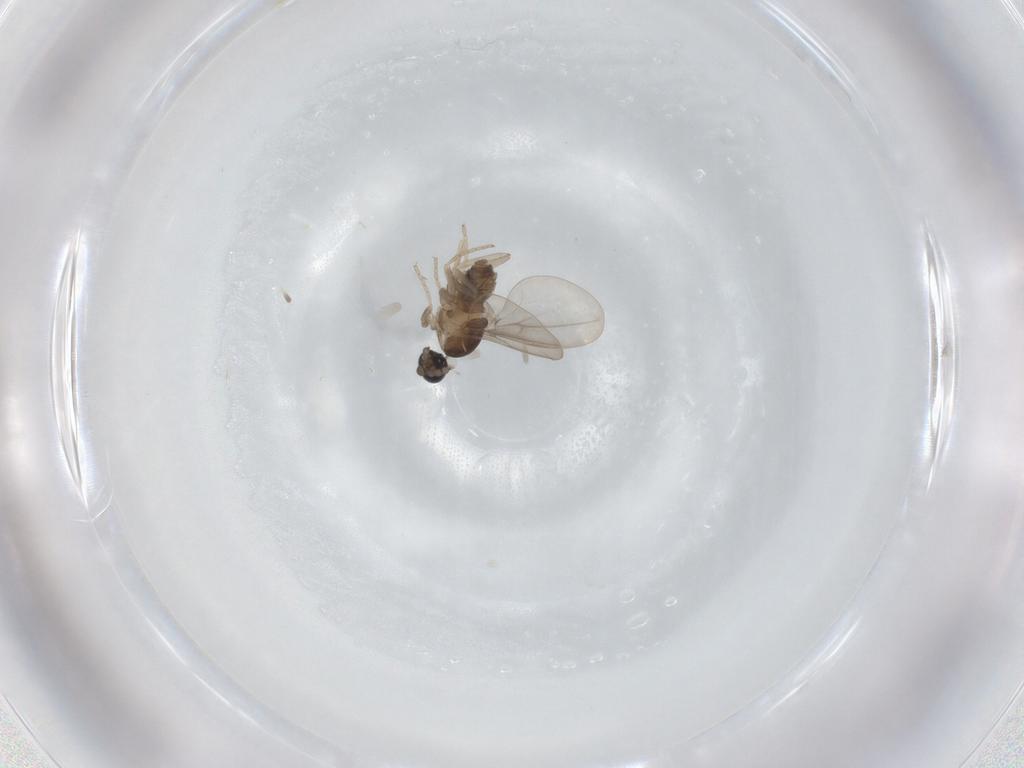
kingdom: Animalia
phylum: Arthropoda
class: Insecta
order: Diptera
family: Cecidomyiidae
